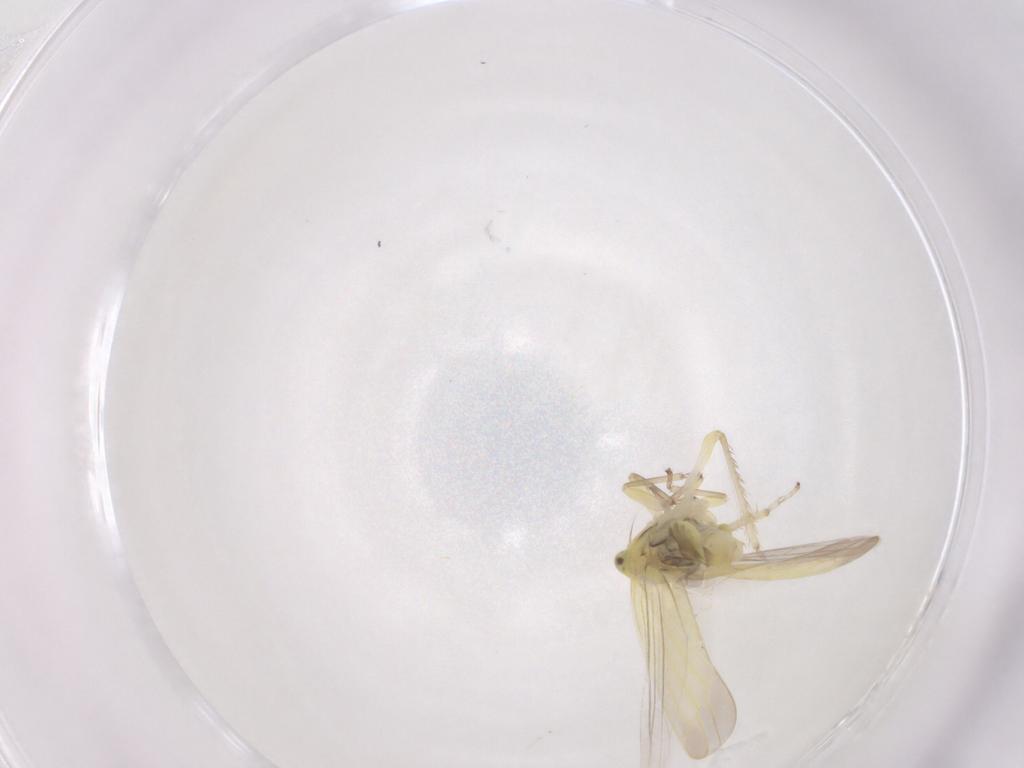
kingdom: Animalia
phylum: Arthropoda
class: Insecta
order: Hemiptera
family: Cicadellidae
